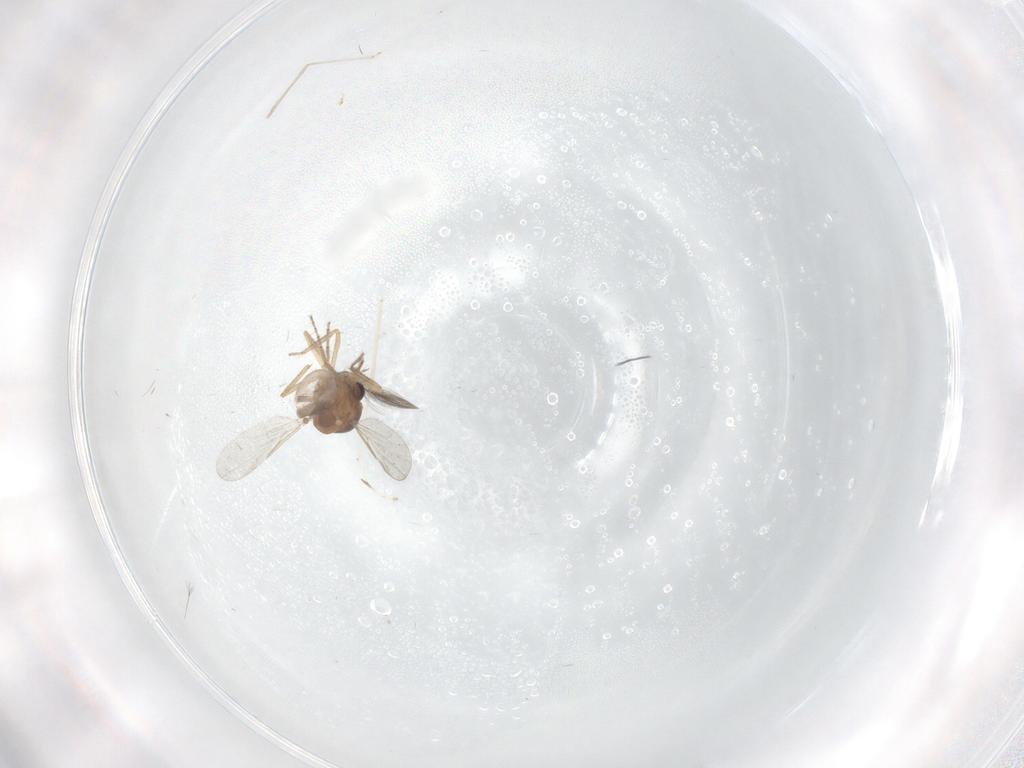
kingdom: Animalia
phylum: Arthropoda
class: Insecta
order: Diptera
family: Ceratopogonidae
